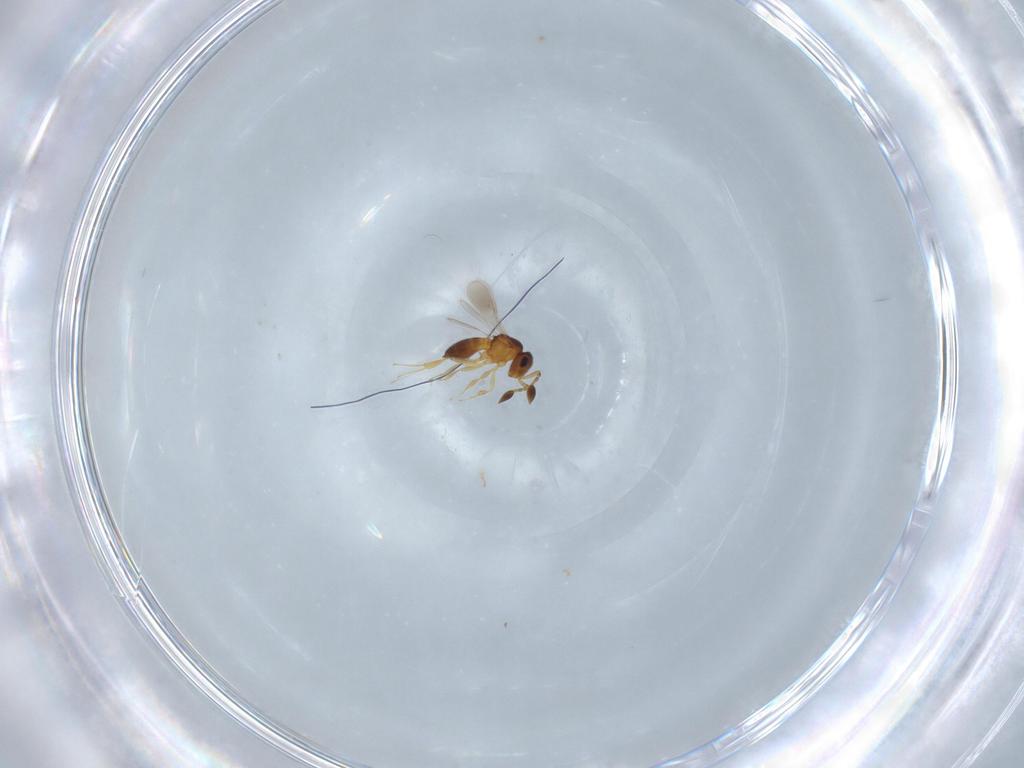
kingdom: Animalia
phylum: Arthropoda
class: Insecta
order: Hymenoptera
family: Scelionidae
